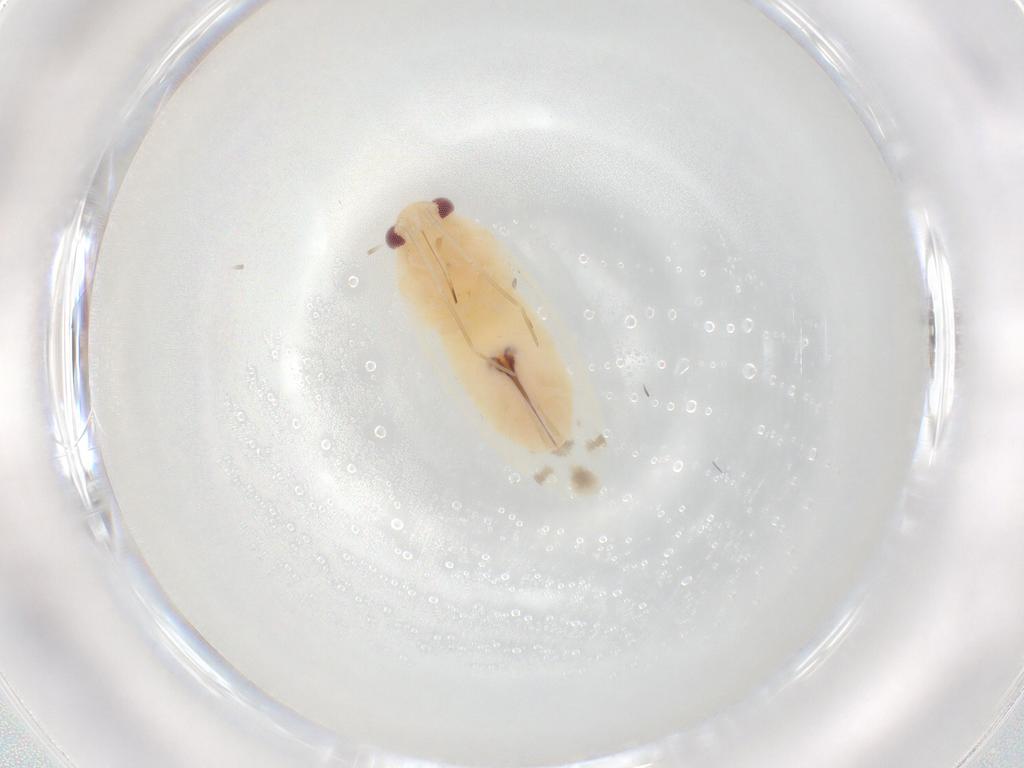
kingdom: Animalia
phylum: Arthropoda
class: Insecta
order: Hemiptera
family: Miridae
